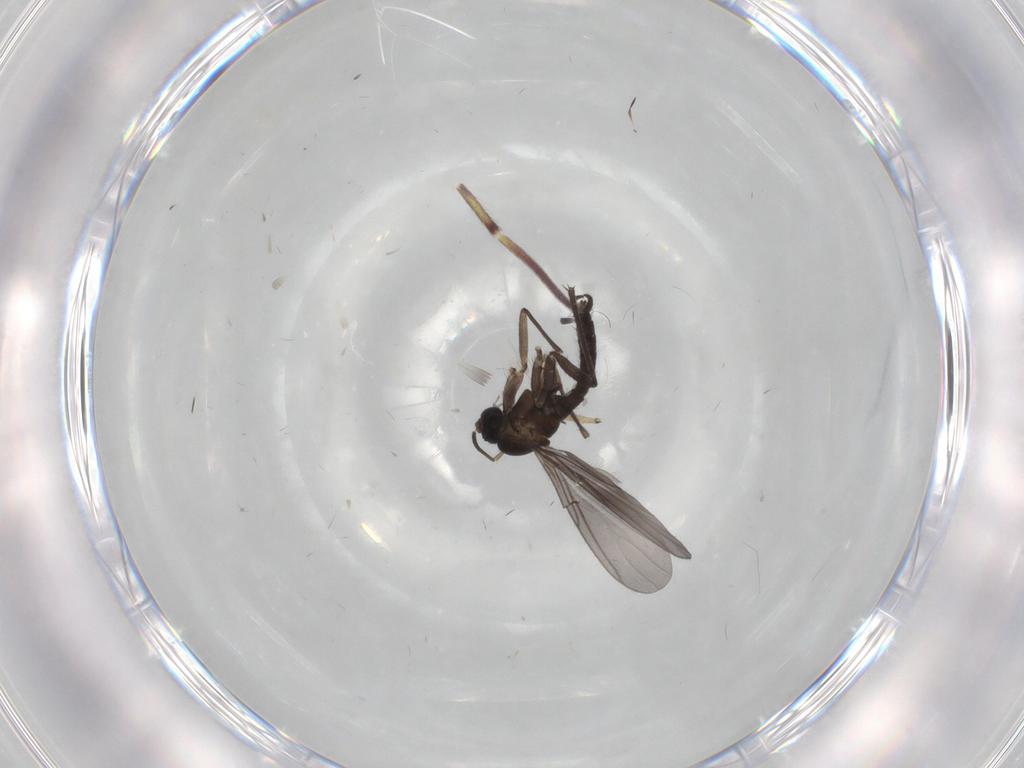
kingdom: Animalia
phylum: Arthropoda
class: Insecta
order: Diptera
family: Sciaridae
